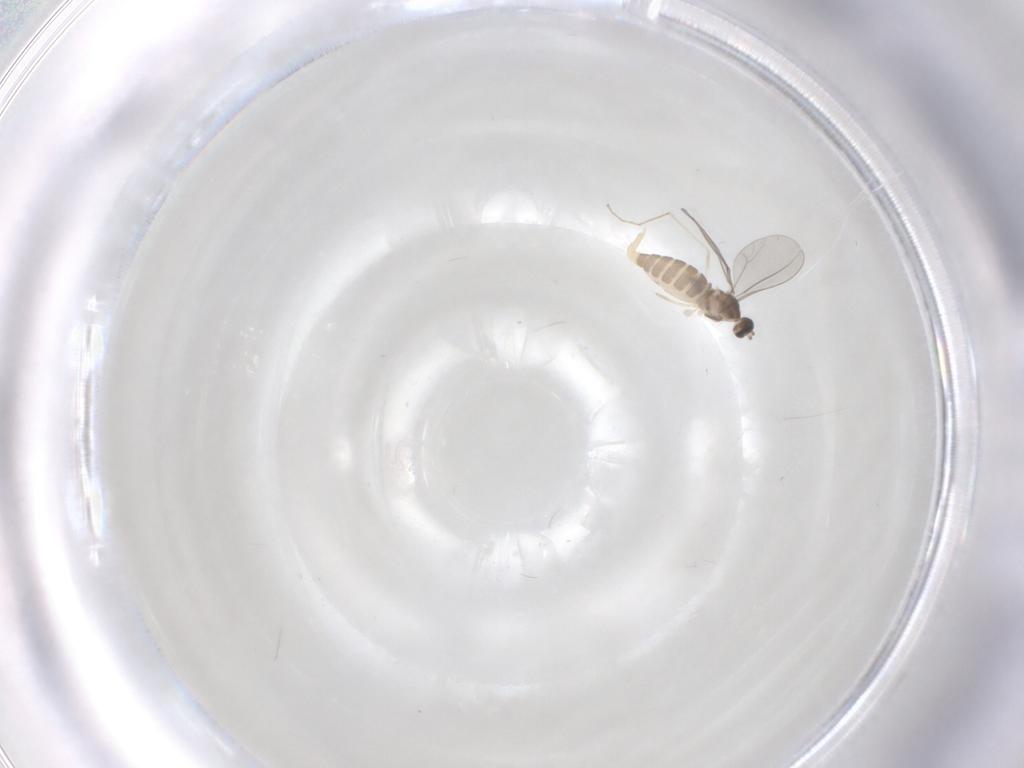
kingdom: Animalia
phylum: Arthropoda
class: Insecta
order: Diptera
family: Cecidomyiidae
